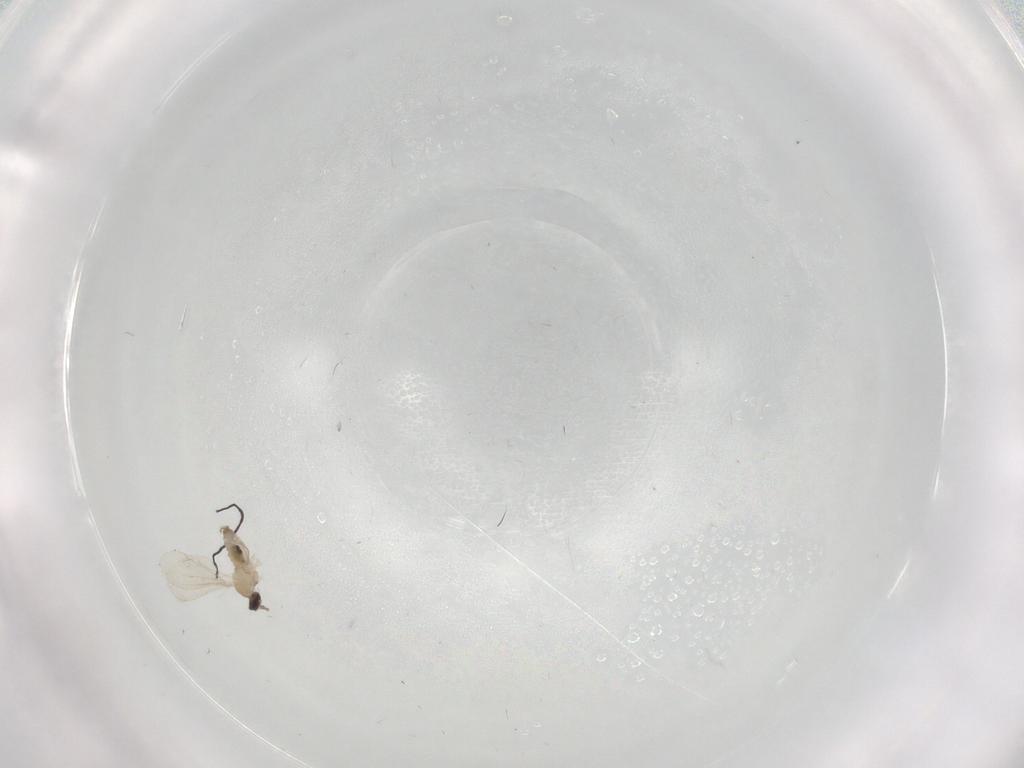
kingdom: Animalia
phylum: Arthropoda
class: Insecta
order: Diptera
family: Cecidomyiidae
